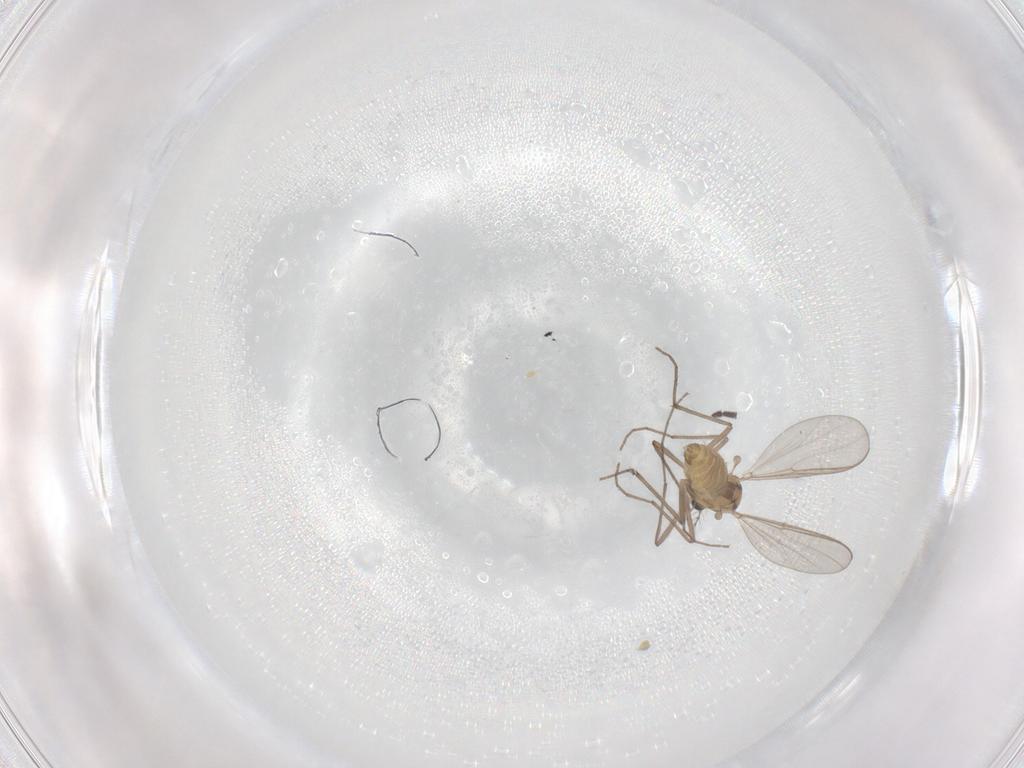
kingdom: Animalia
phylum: Arthropoda
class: Insecta
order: Diptera
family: Chironomidae
